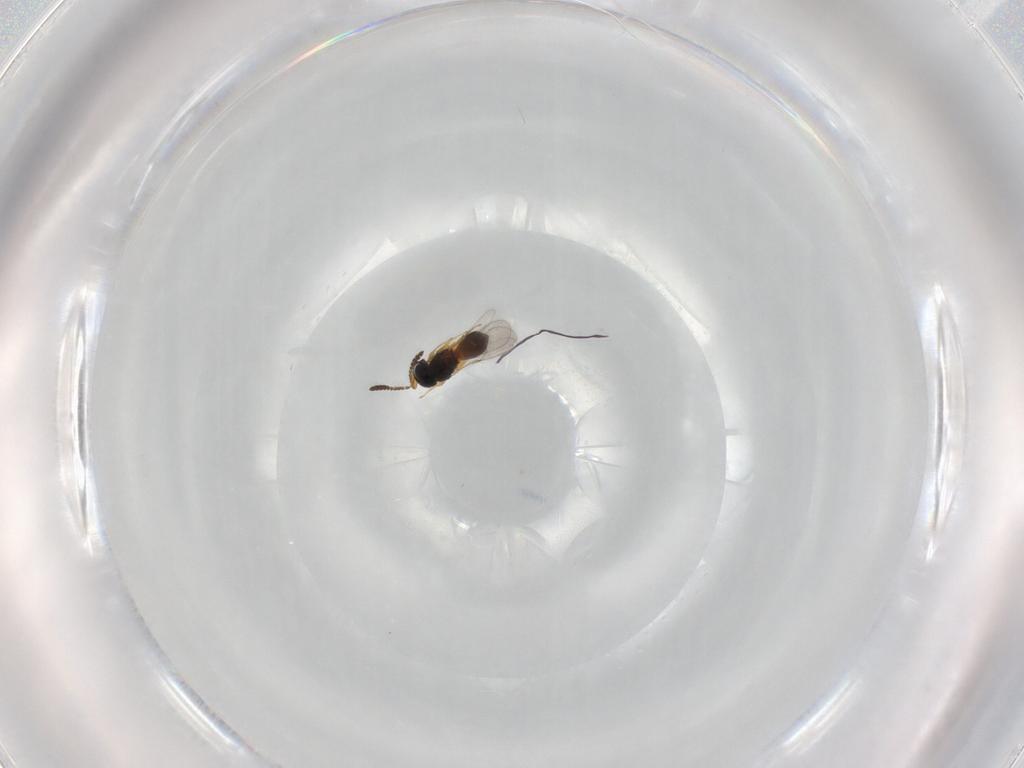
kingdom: Animalia
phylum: Arthropoda
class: Insecta
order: Hymenoptera
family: Scelionidae
